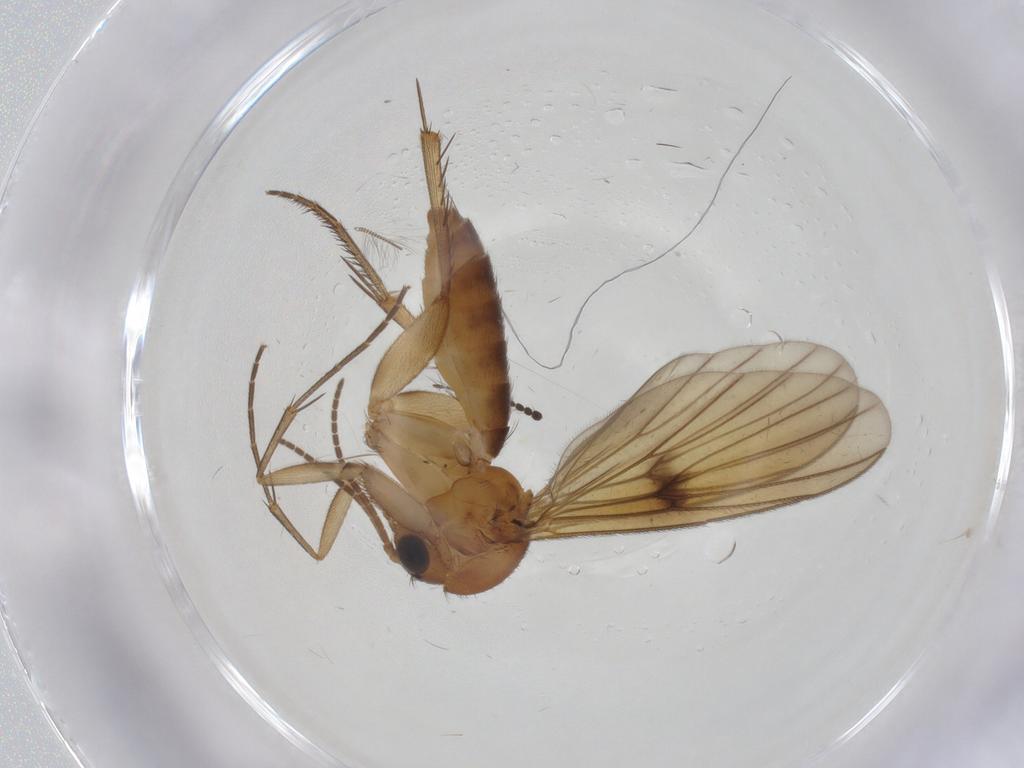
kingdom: Animalia
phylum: Arthropoda
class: Insecta
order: Diptera
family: Mycetophilidae
